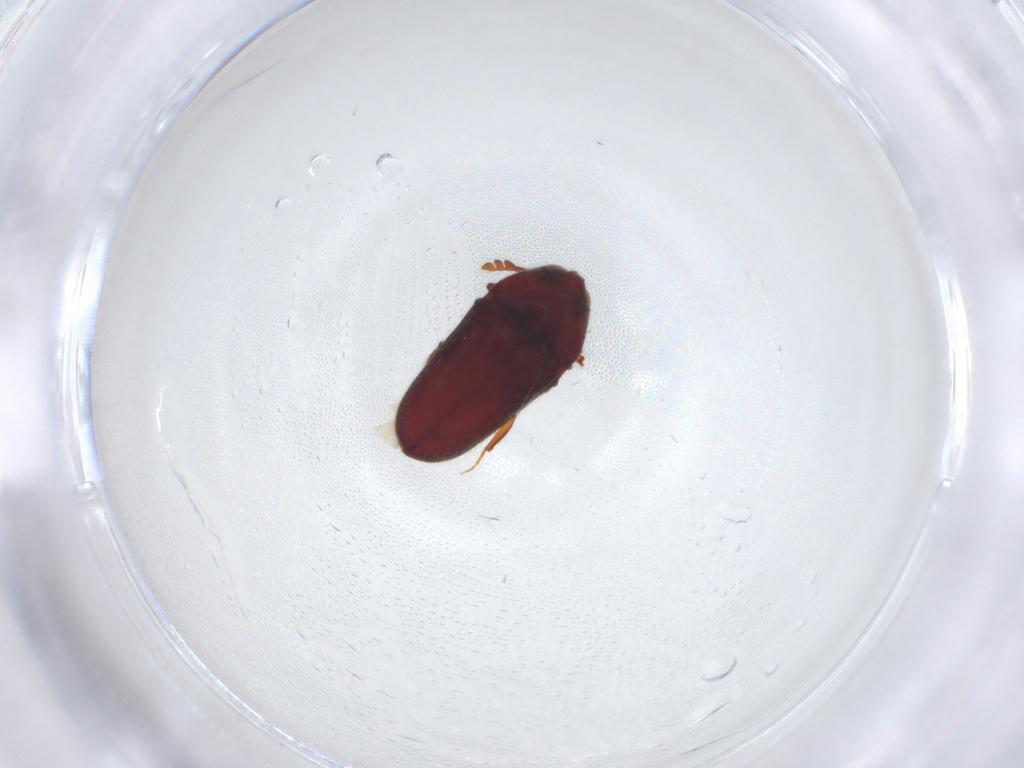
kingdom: Animalia
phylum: Arthropoda
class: Insecta
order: Coleoptera
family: Throscidae
